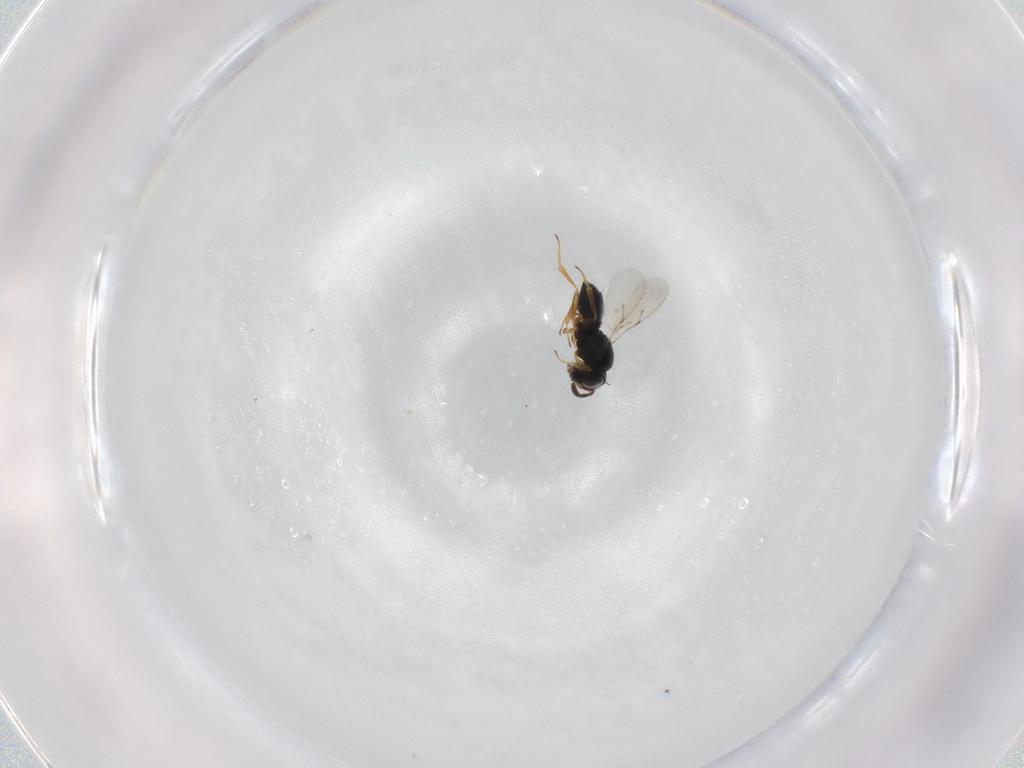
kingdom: Animalia
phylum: Arthropoda
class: Insecta
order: Hymenoptera
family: Scelionidae
